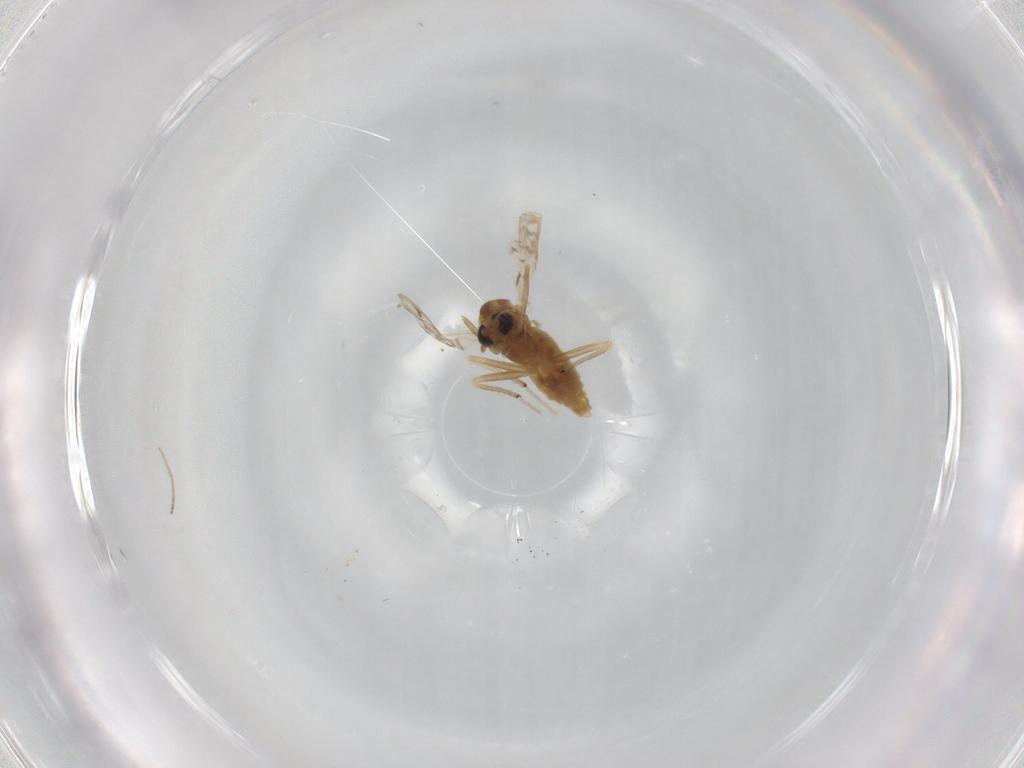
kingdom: Animalia
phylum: Arthropoda
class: Insecta
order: Diptera
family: Chironomidae
